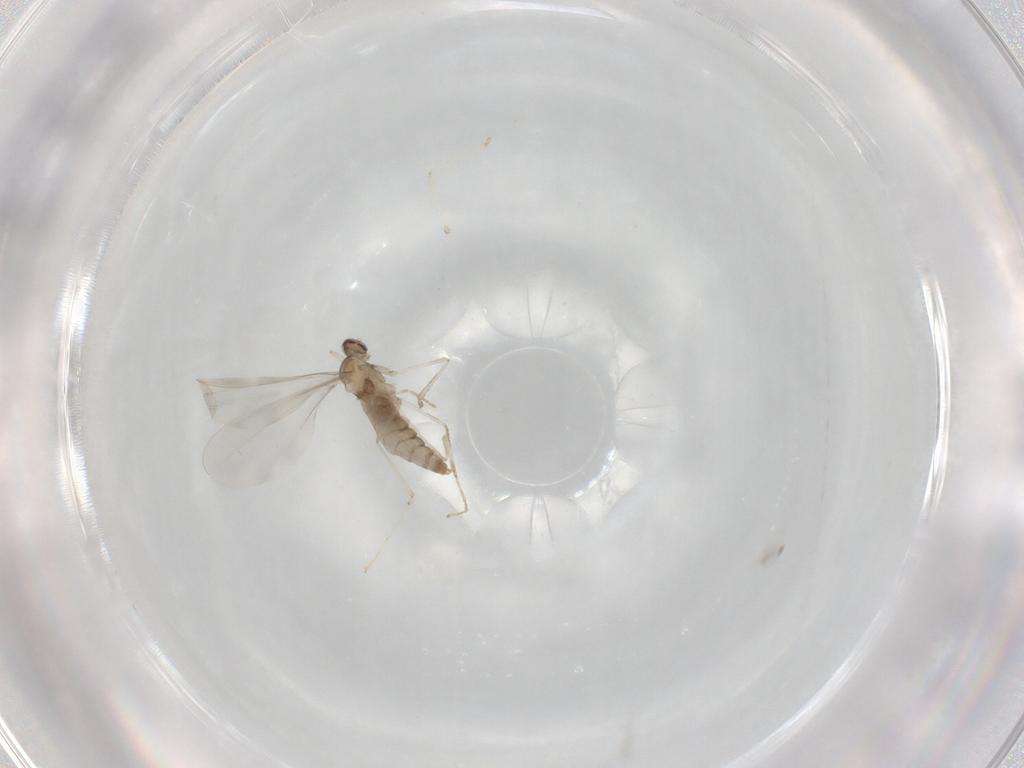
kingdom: Animalia
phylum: Arthropoda
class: Insecta
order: Diptera
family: Cecidomyiidae
